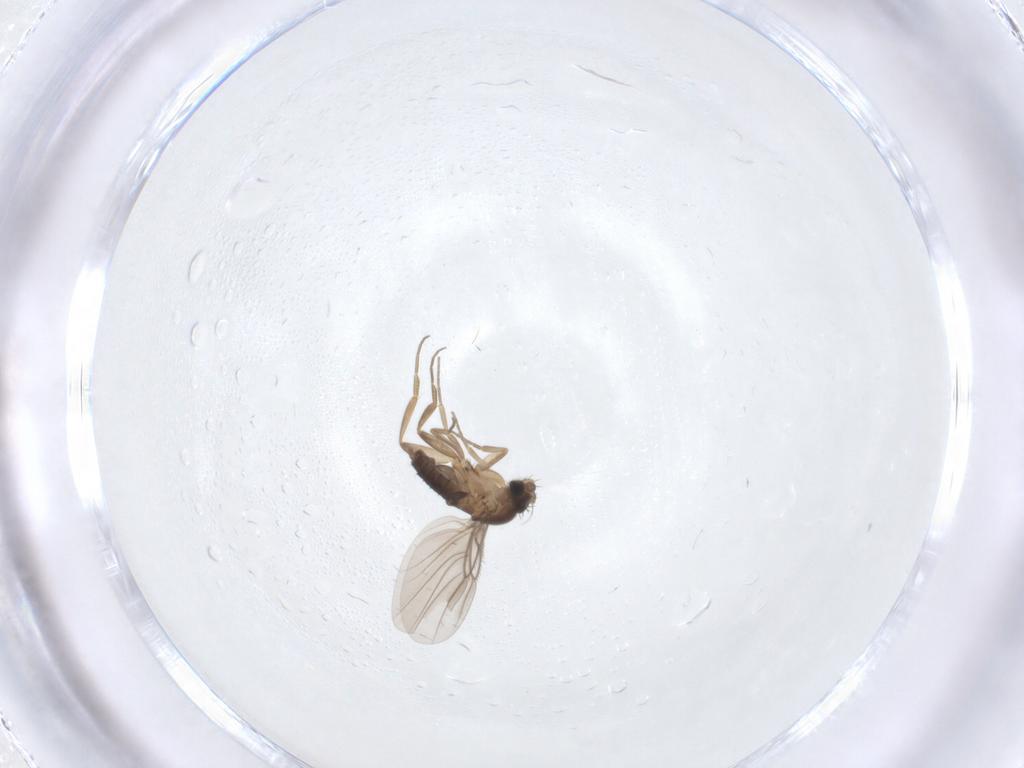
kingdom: Animalia
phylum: Arthropoda
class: Insecta
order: Diptera
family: Phoridae
